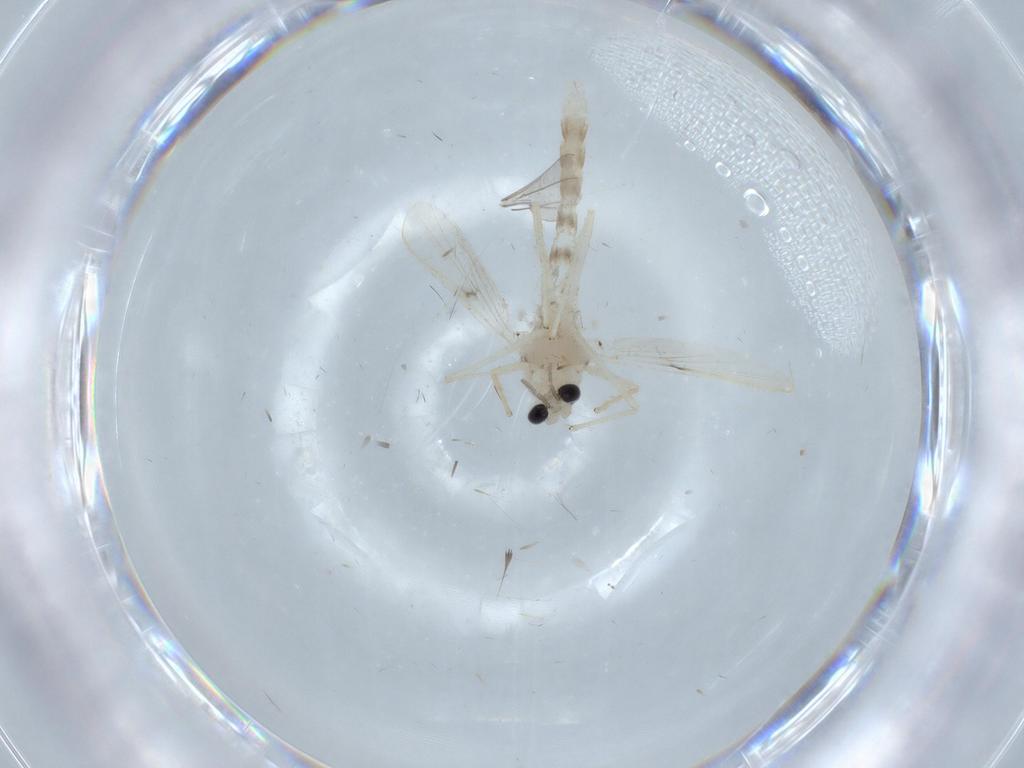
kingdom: Animalia
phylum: Arthropoda
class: Insecta
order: Diptera
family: Chironomidae
